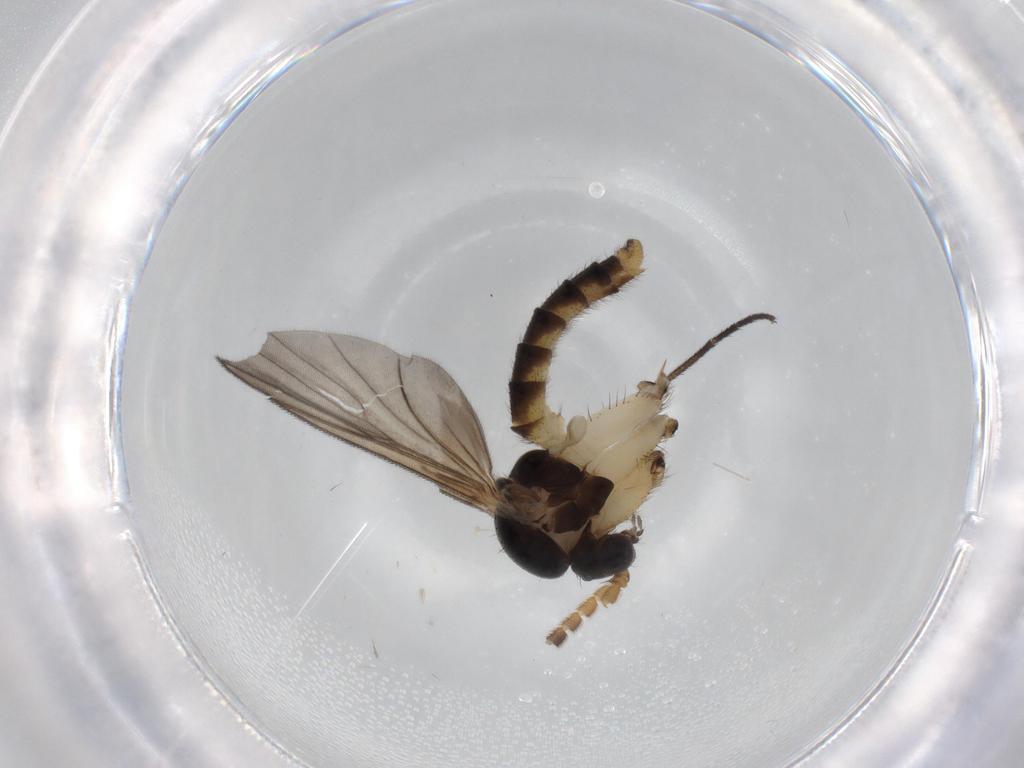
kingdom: Animalia
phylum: Arthropoda
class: Insecta
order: Diptera
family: Mycetophilidae
